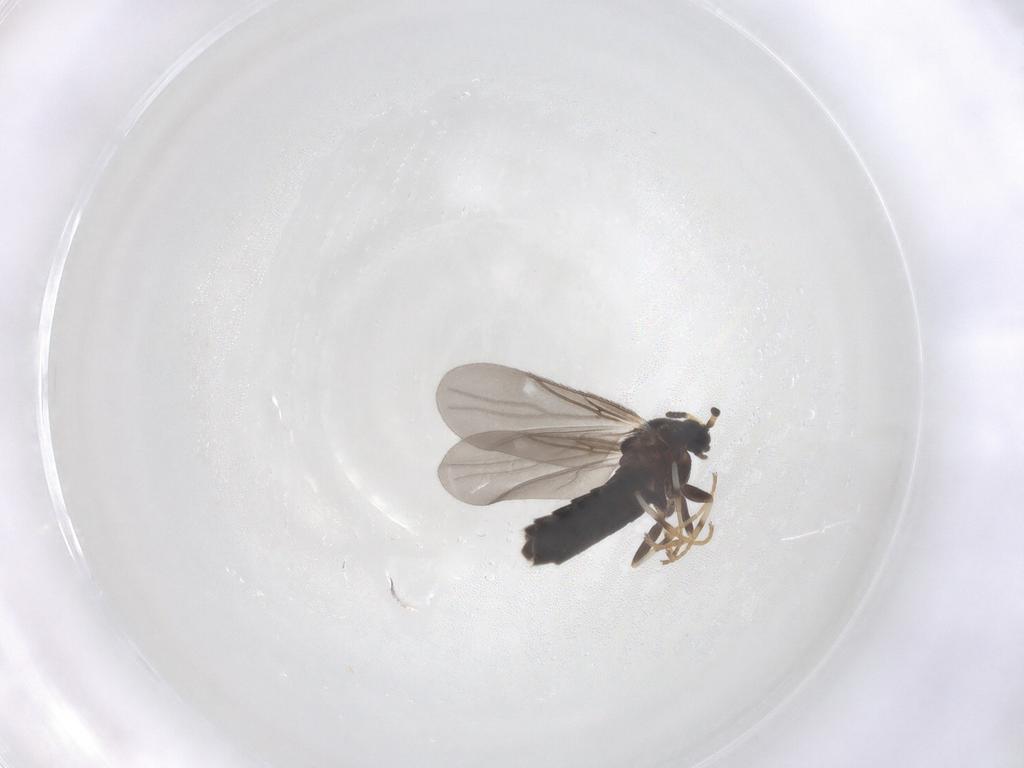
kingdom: Animalia
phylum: Arthropoda
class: Insecta
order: Diptera
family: Scatopsidae
